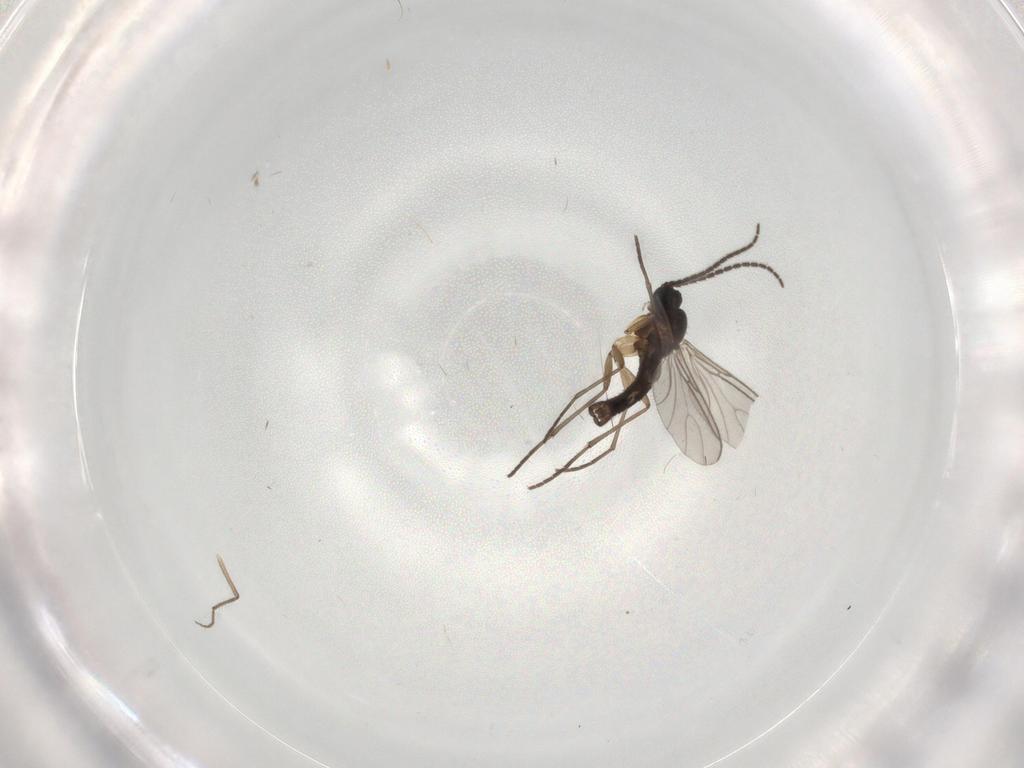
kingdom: Animalia
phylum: Arthropoda
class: Insecta
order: Diptera
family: Chironomidae
